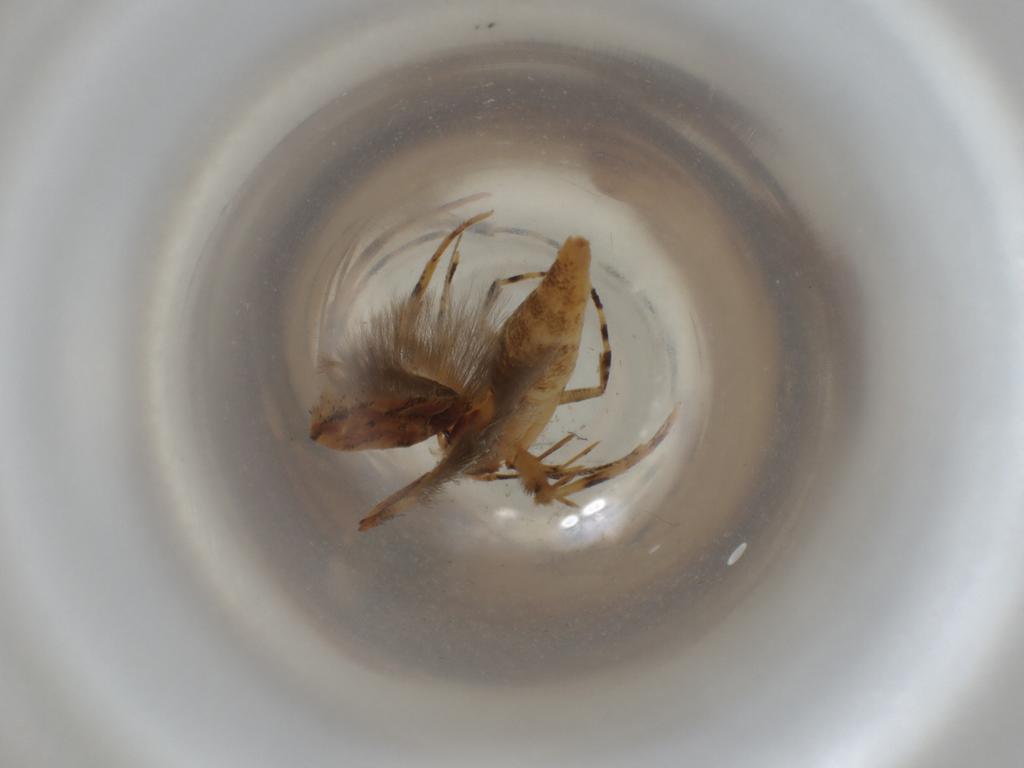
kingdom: Animalia
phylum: Arthropoda
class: Insecta
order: Lepidoptera
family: Cosmopterigidae
